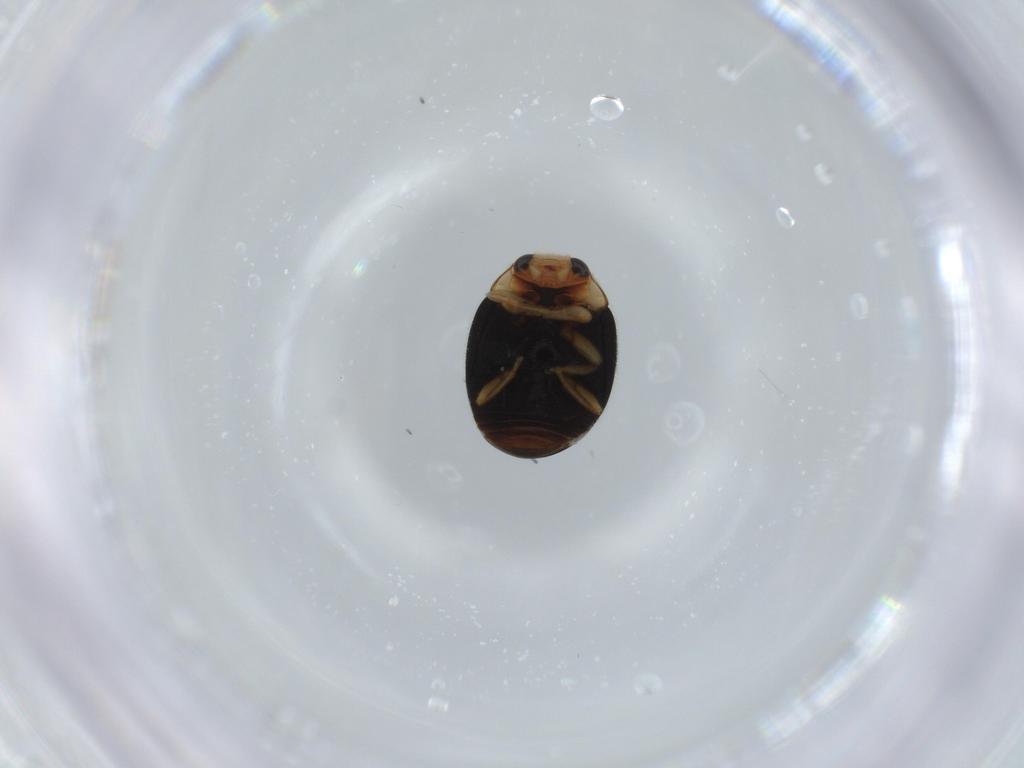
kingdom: Animalia
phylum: Arthropoda
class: Insecta
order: Coleoptera
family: Coccinellidae
